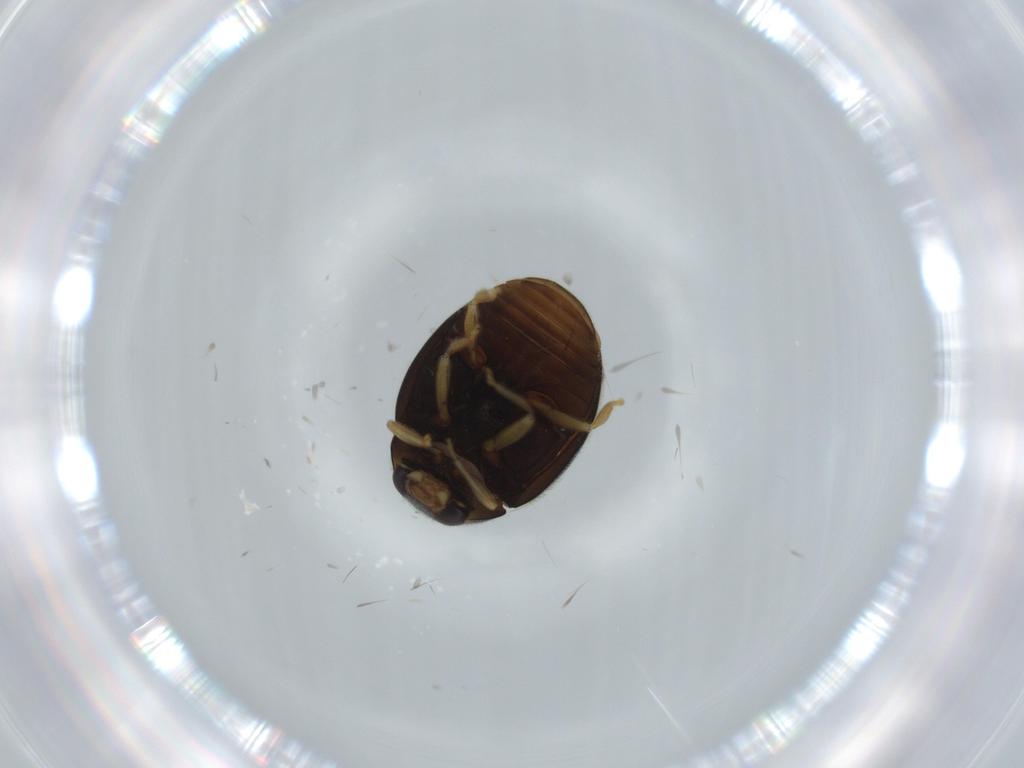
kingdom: Animalia
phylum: Arthropoda
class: Insecta
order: Coleoptera
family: Coccinellidae
